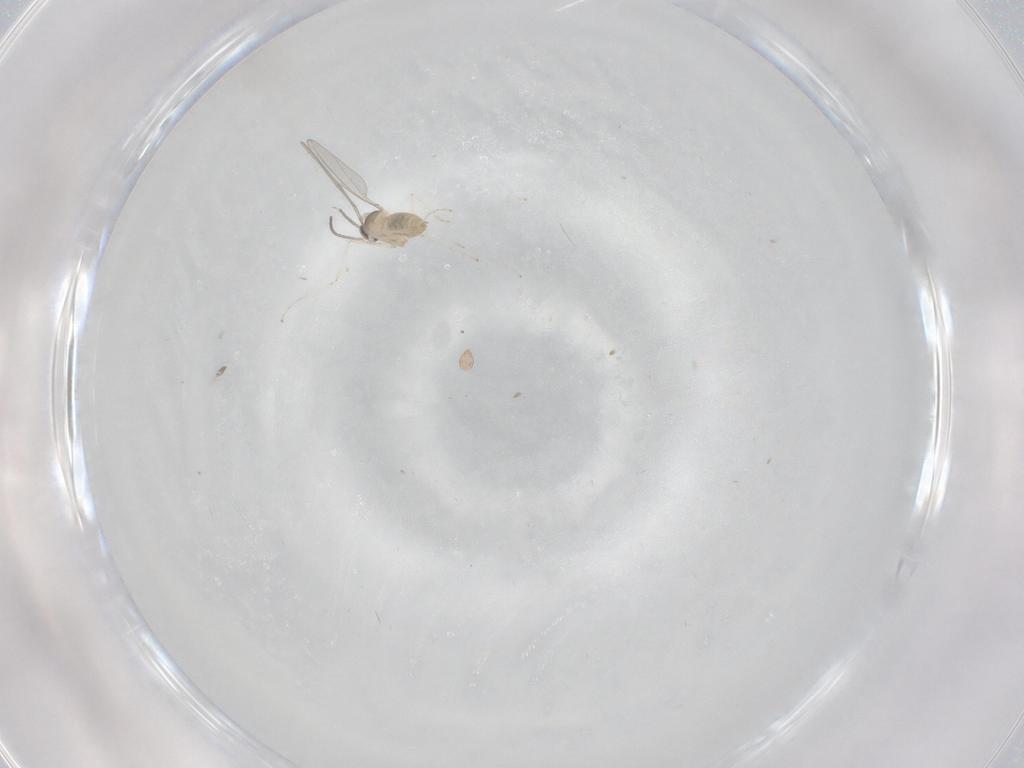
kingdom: Animalia
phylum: Arthropoda
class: Insecta
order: Diptera
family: Cecidomyiidae
